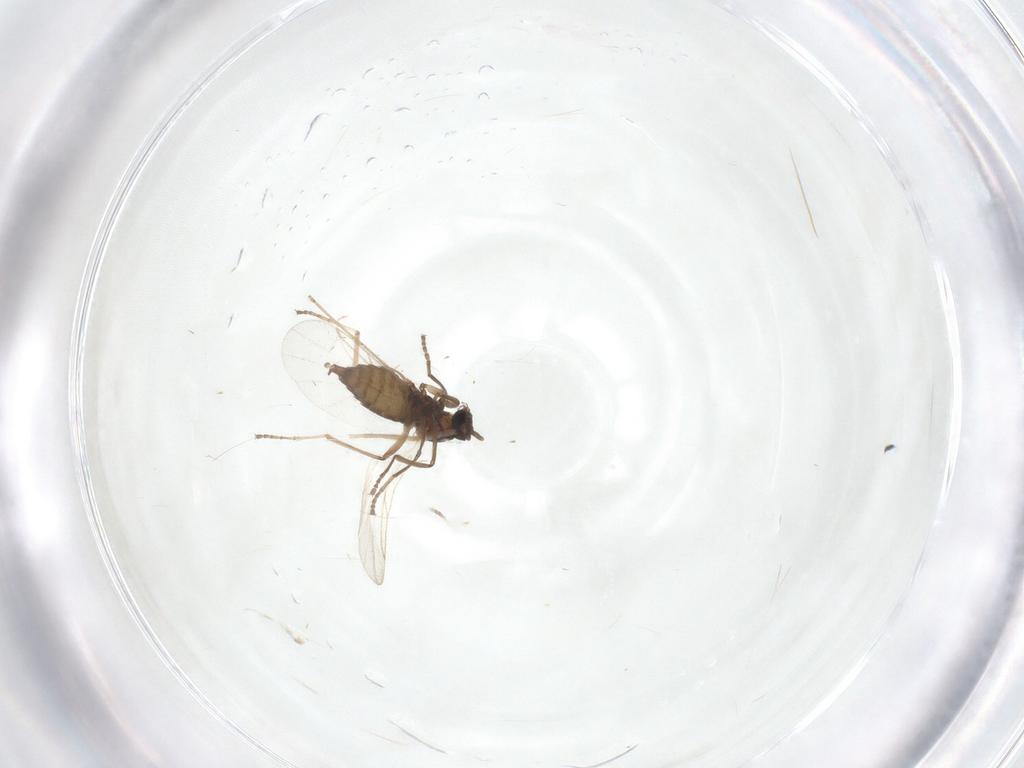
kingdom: Animalia
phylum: Arthropoda
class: Insecta
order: Diptera
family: Cecidomyiidae
